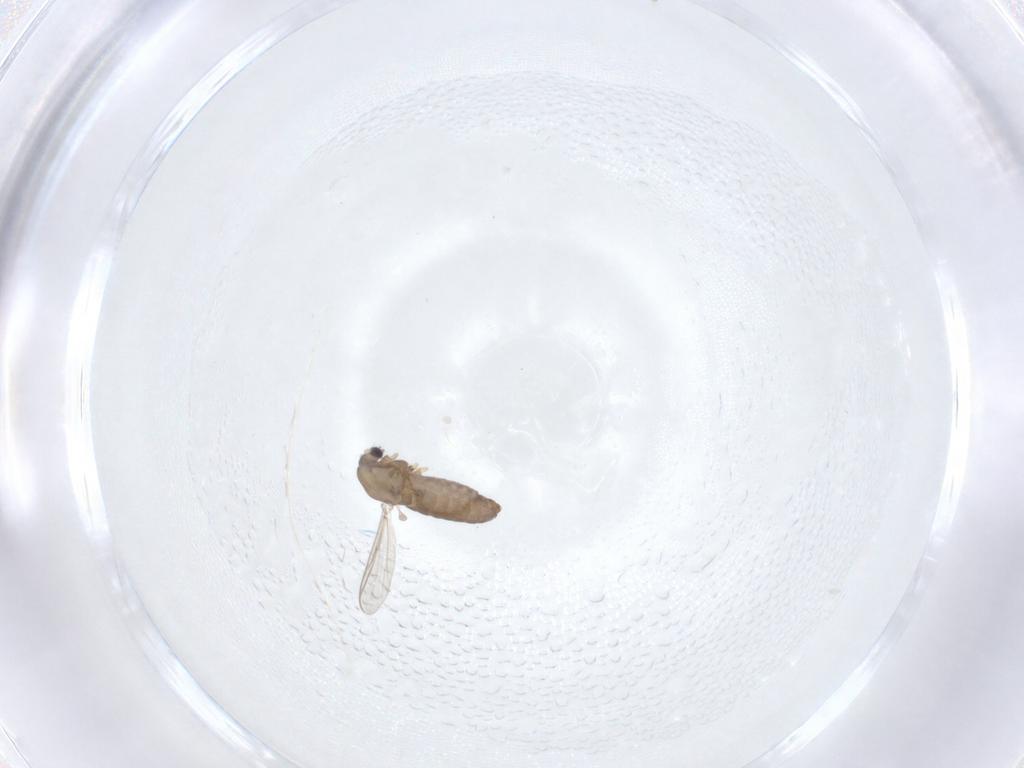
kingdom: Animalia
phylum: Arthropoda
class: Insecta
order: Diptera
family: Chironomidae
